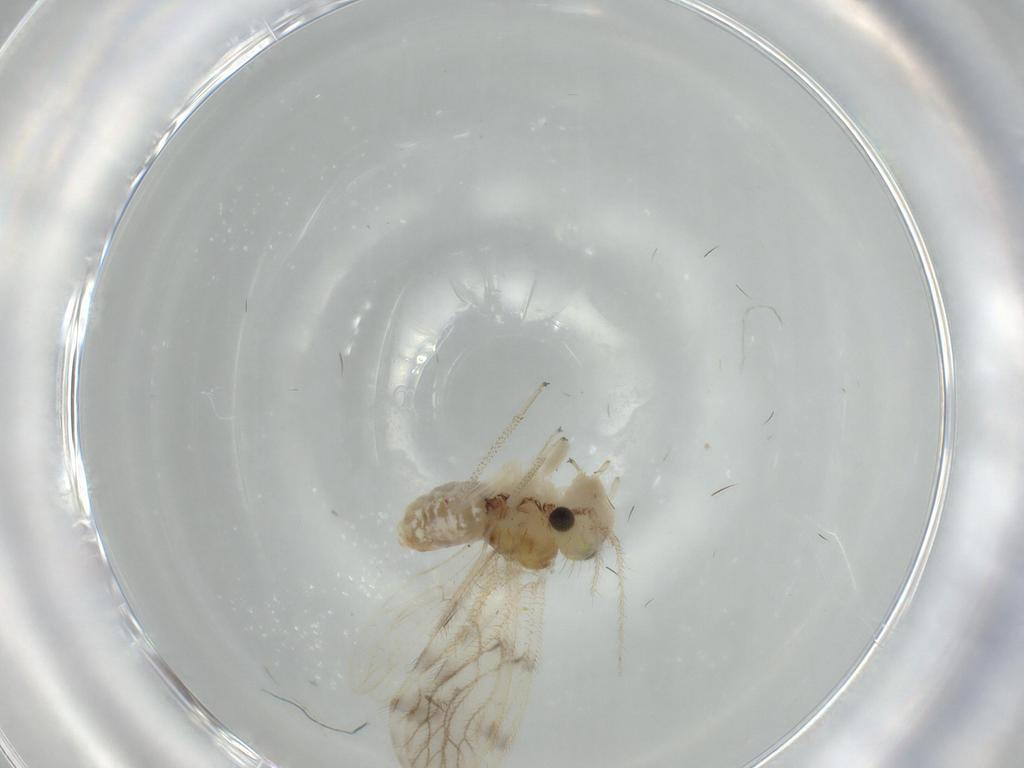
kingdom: Animalia
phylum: Arthropoda
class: Insecta
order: Psocodea
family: Pseudocaeciliidae
